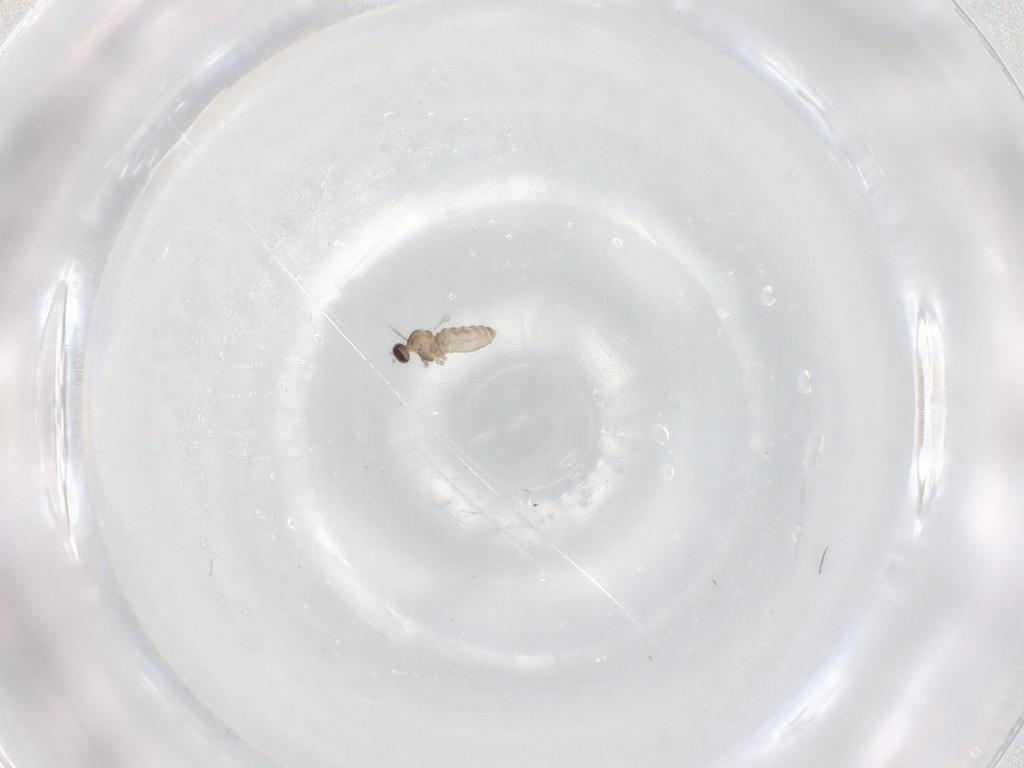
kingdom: Animalia
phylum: Arthropoda
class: Insecta
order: Diptera
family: Cecidomyiidae
